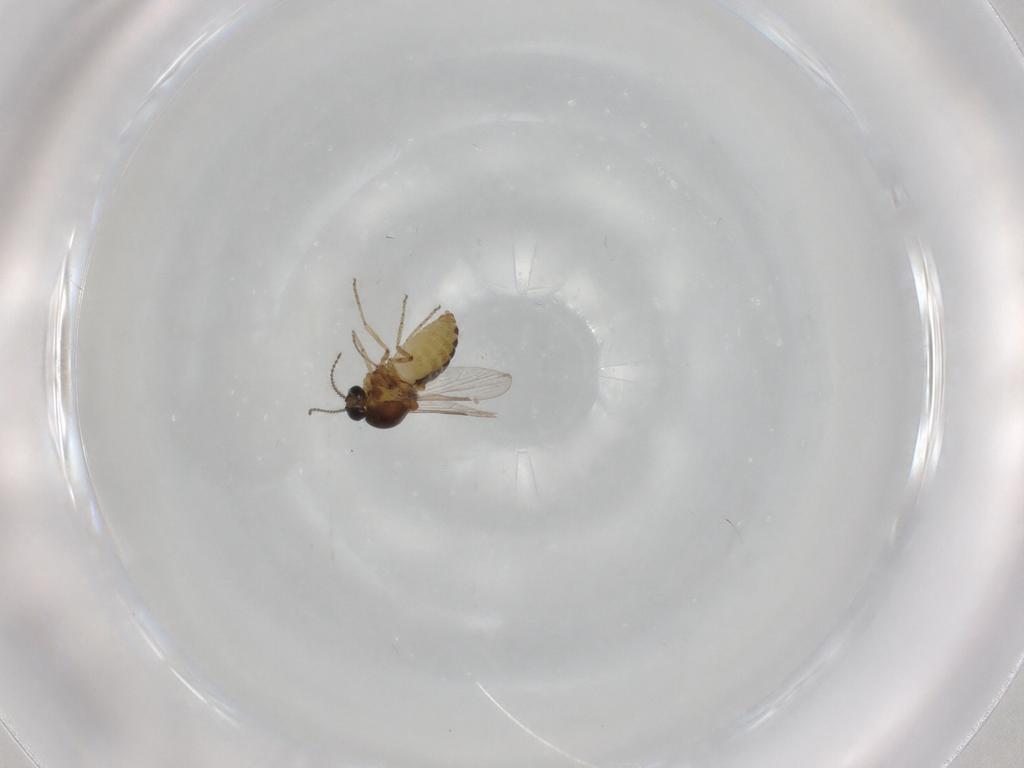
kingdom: Animalia
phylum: Arthropoda
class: Insecta
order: Diptera
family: Ceratopogonidae
